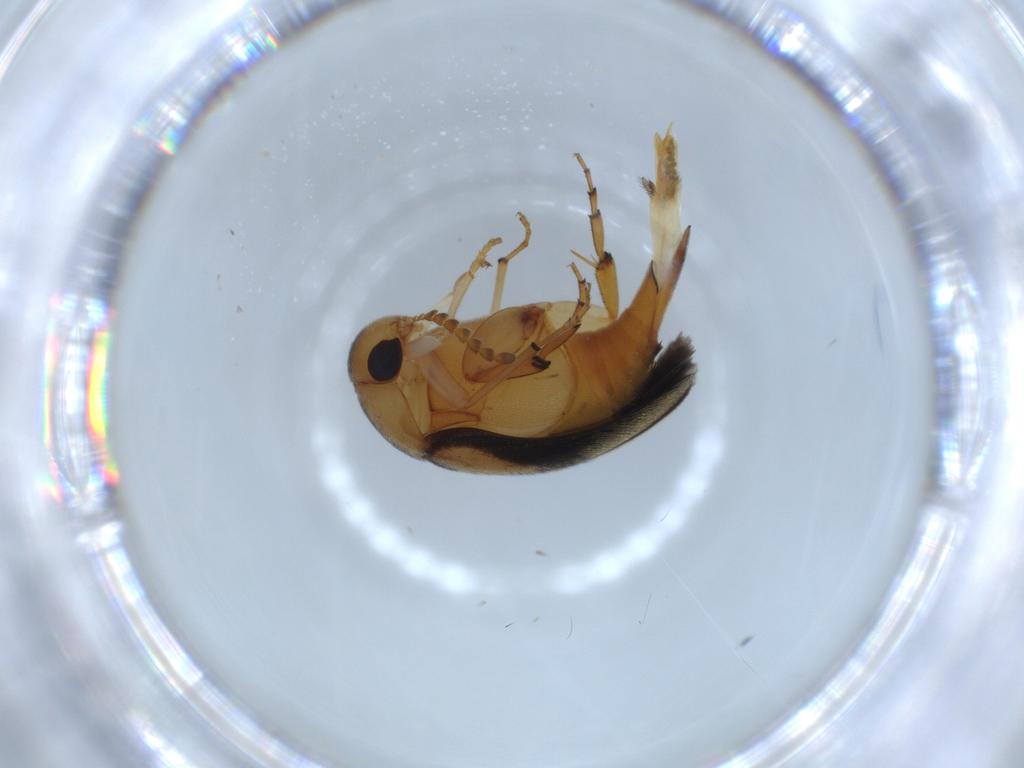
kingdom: Animalia
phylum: Arthropoda
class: Insecta
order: Coleoptera
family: Mordellidae
